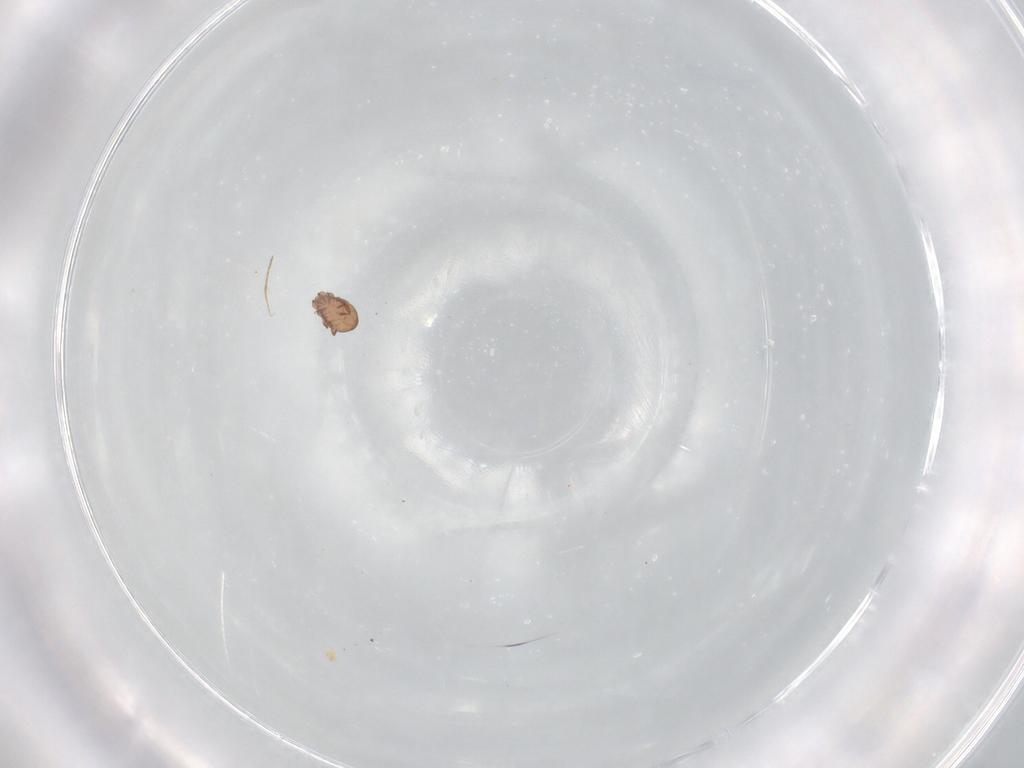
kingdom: Animalia
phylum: Arthropoda
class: Arachnida
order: Sarcoptiformes
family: Eremaeidae
